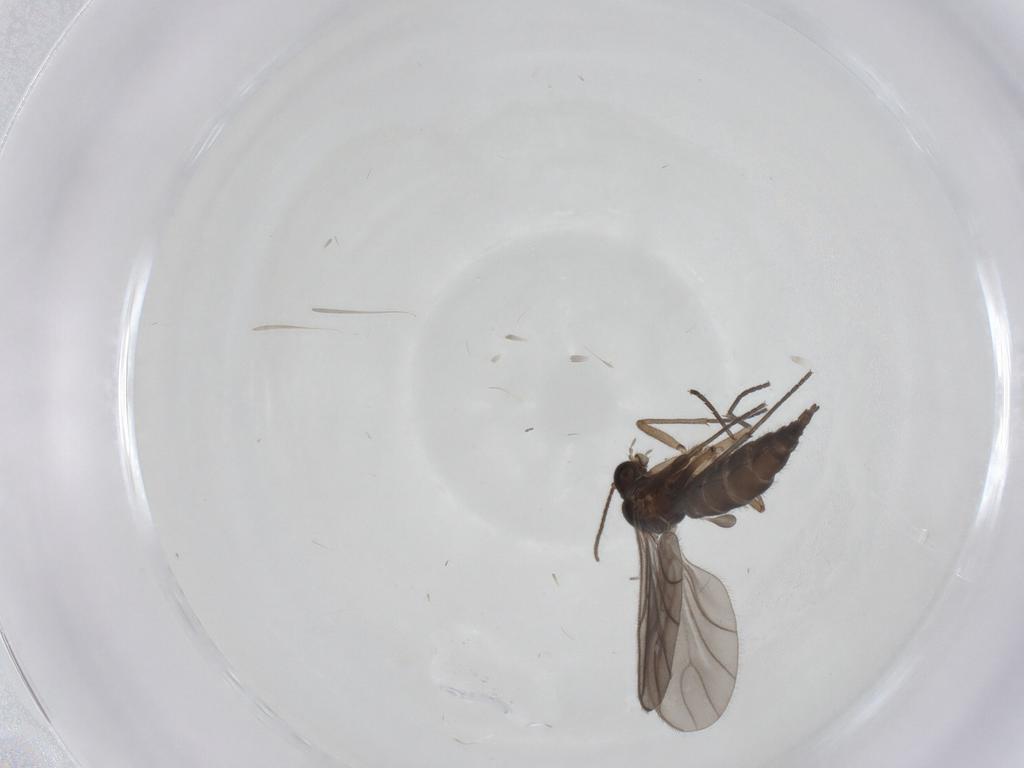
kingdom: Animalia
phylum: Arthropoda
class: Insecta
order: Diptera
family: Sciaridae
